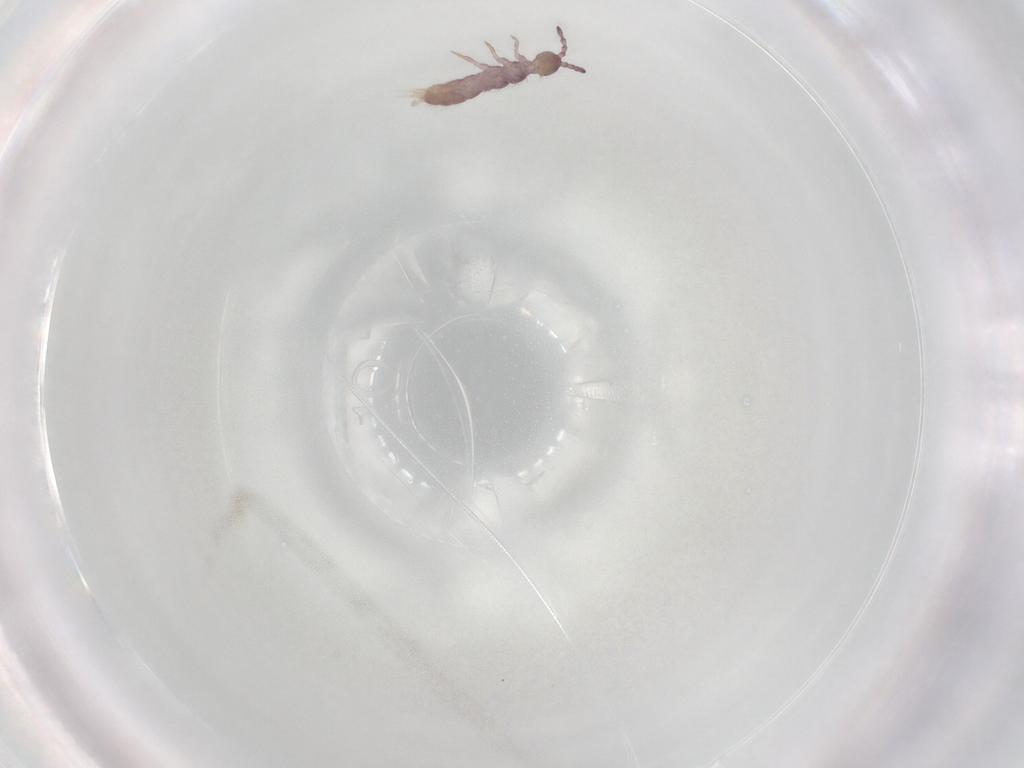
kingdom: Animalia
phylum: Arthropoda
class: Collembola
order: Entomobryomorpha
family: Isotomidae
